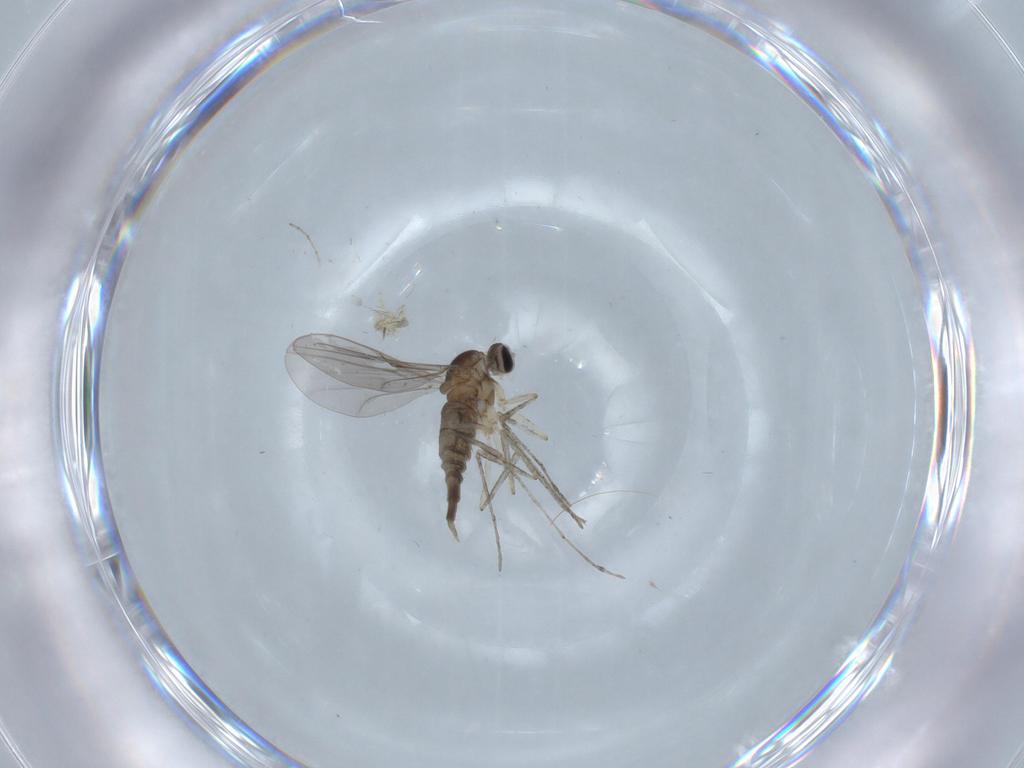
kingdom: Animalia
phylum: Arthropoda
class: Insecta
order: Diptera
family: Cecidomyiidae
